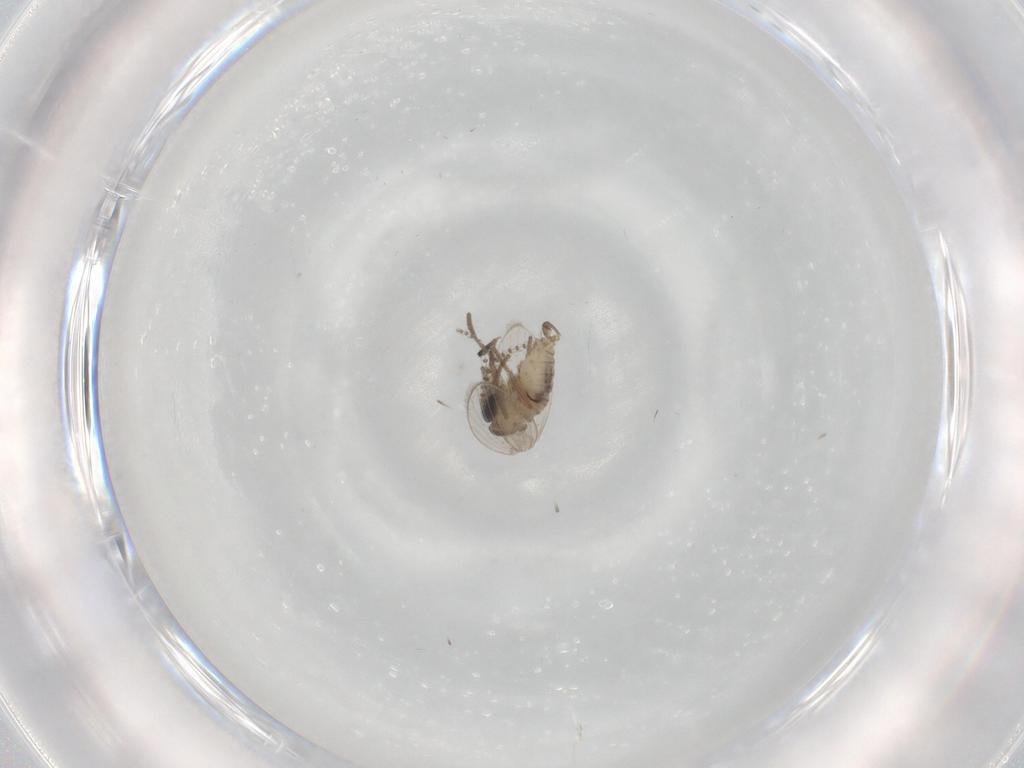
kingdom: Animalia
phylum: Arthropoda
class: Insecta
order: Diptera
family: Psychodidae
